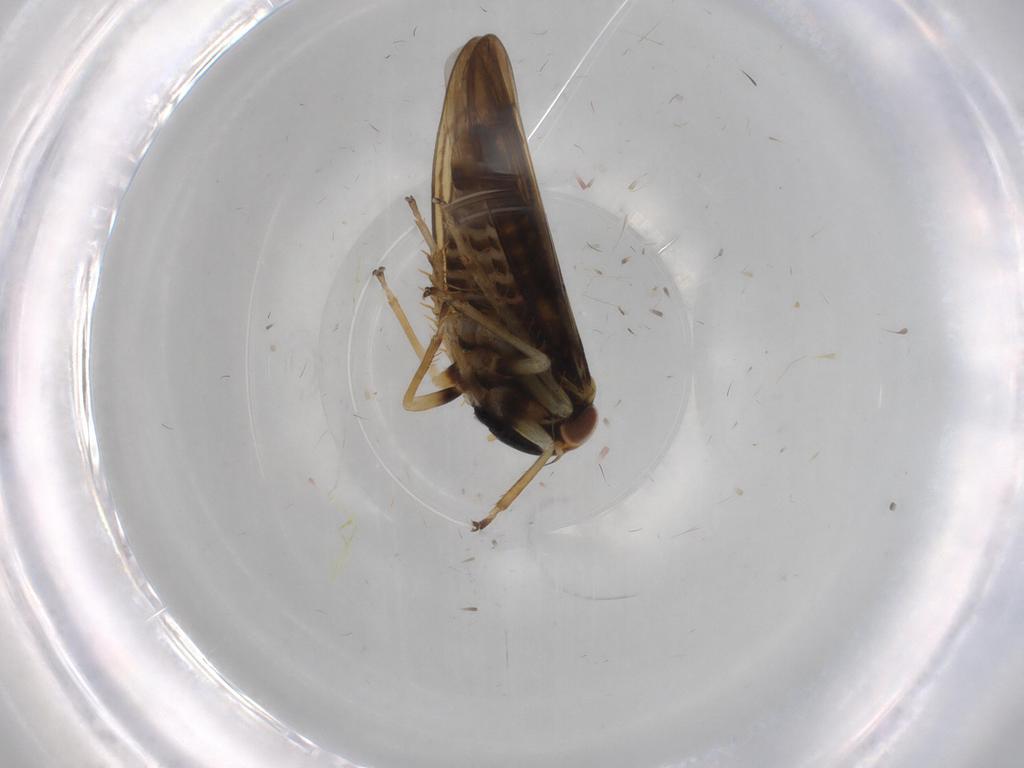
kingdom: Animalia
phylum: Arthropoda
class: Insecta
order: Hemiptera
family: Cicadellidae
